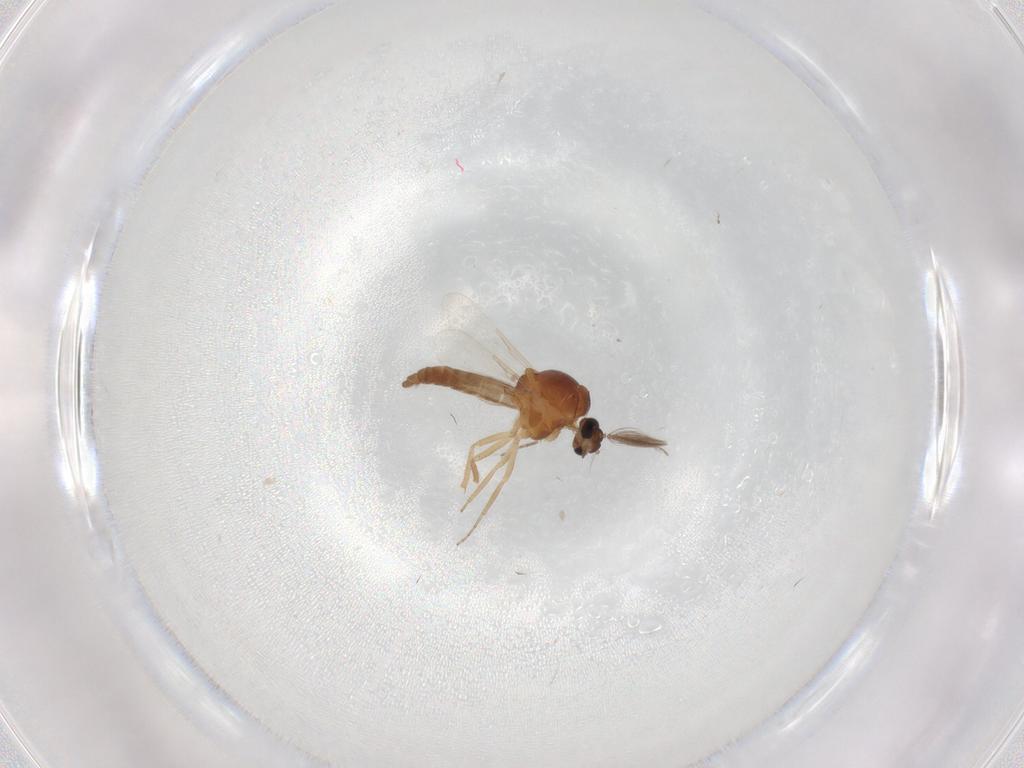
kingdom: Animalia
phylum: Arthropoda
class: Insecta
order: Diptera
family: Ceratopogonidae
